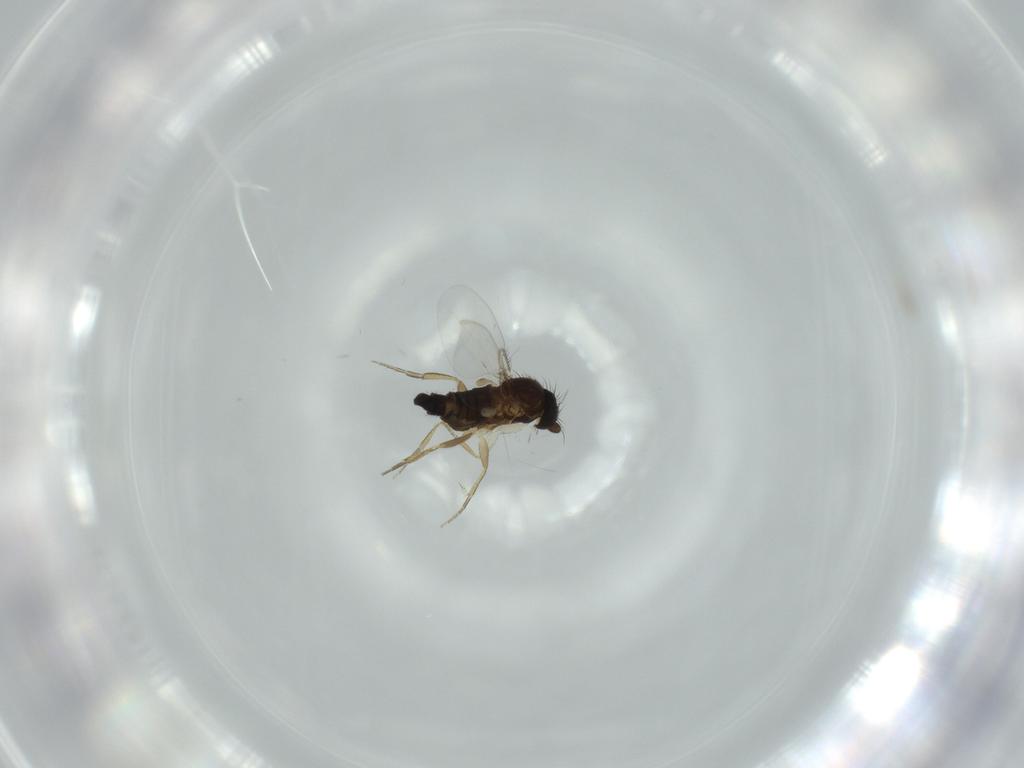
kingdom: Animalia
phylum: Arthropoda
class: Insecta
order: Diptera
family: Phoridae
